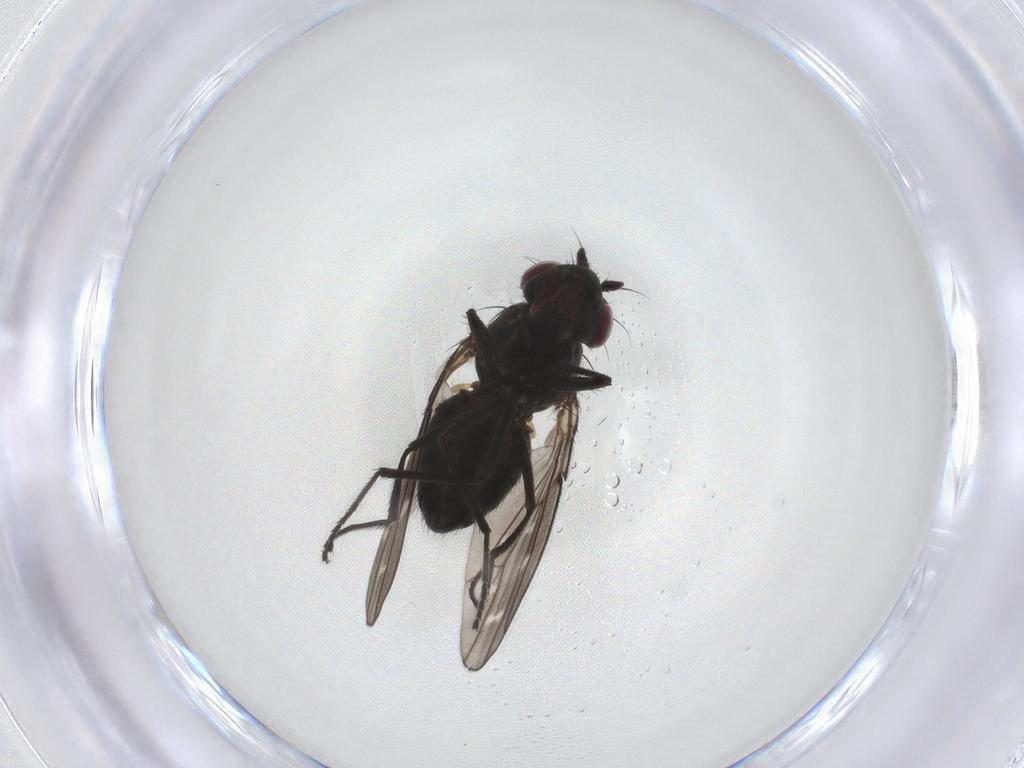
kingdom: Animalia
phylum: Arthropoda
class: Insecta
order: Diptera
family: Ephydridae
